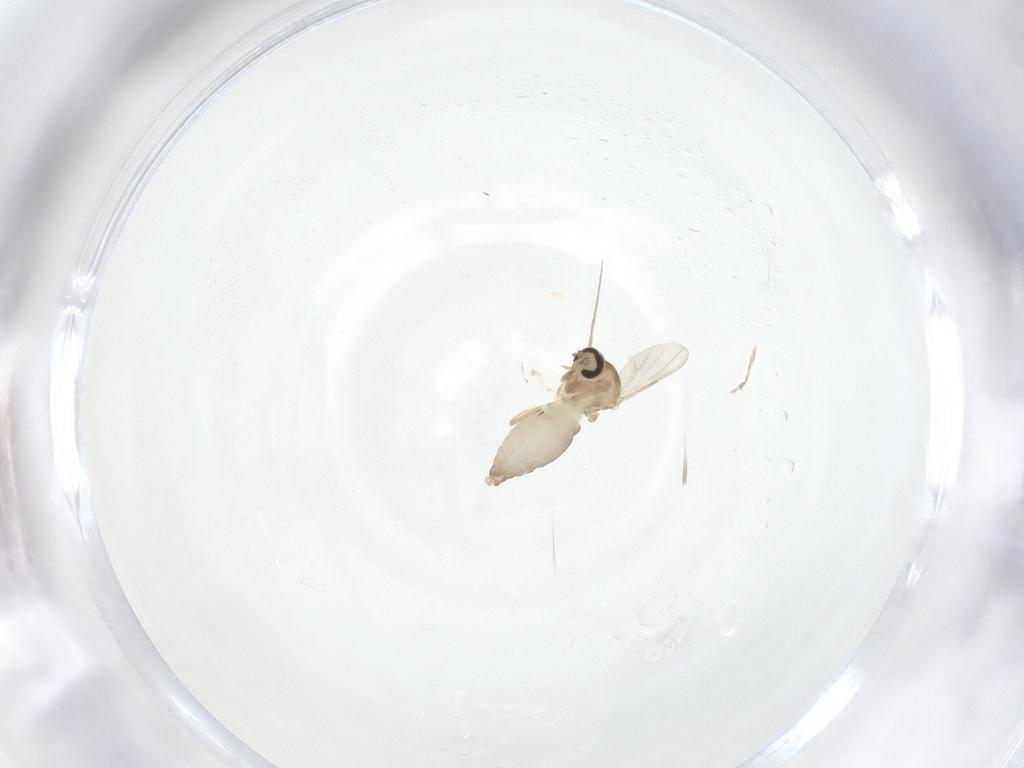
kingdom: Animalia
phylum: Arthropoda
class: Insecta
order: Diptera
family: Ceratopogonidae
